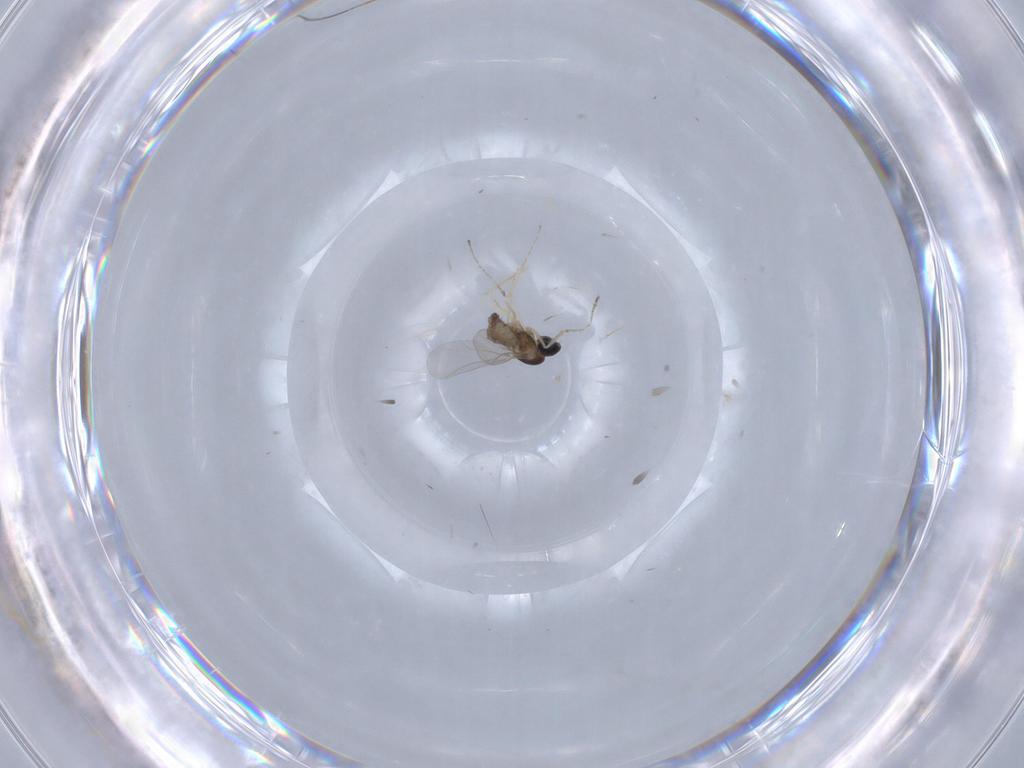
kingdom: Animalia
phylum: Arthropoda
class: Insecta
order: Diptera
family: Cecidomyiidae
